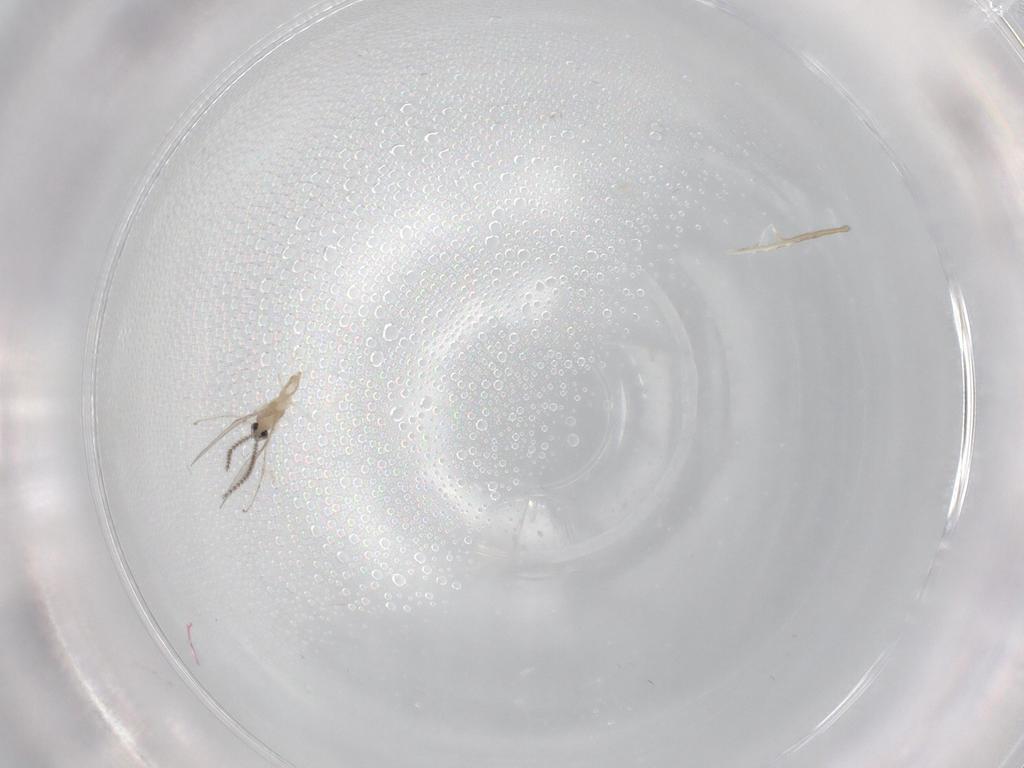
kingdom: Animalia
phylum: Arthropoda
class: Insecta
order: Diptera
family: Cecidomyiidae
